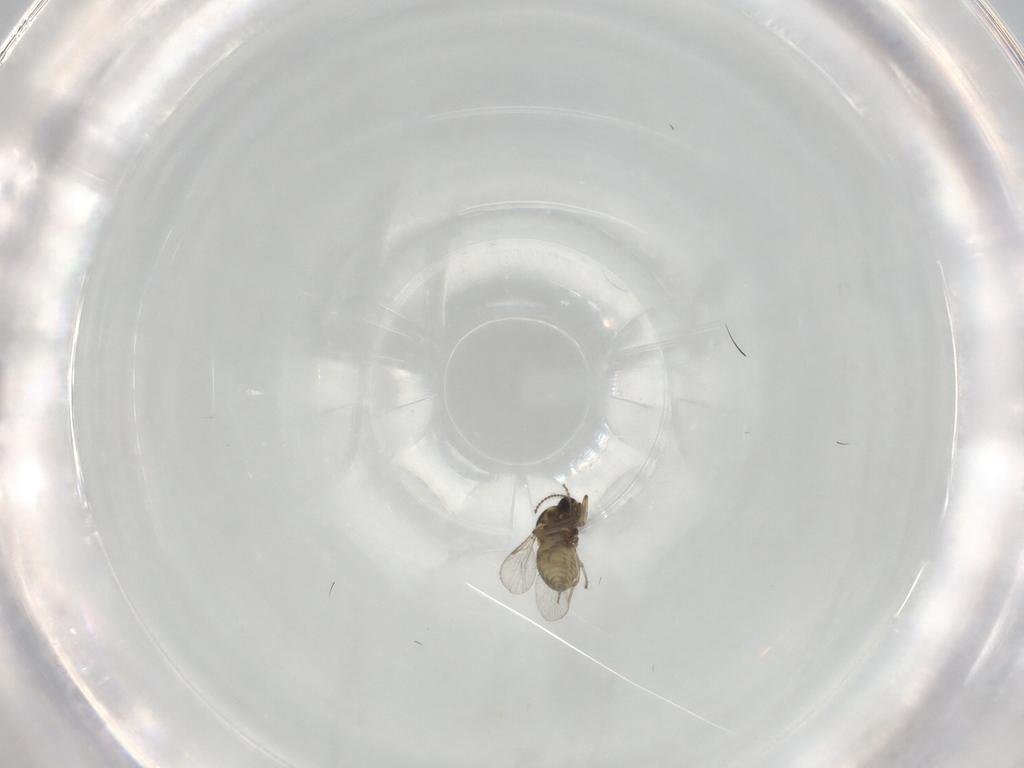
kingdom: Animalia
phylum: Arthropoda
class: Insecta
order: Diptera
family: Ceratopogonidae
